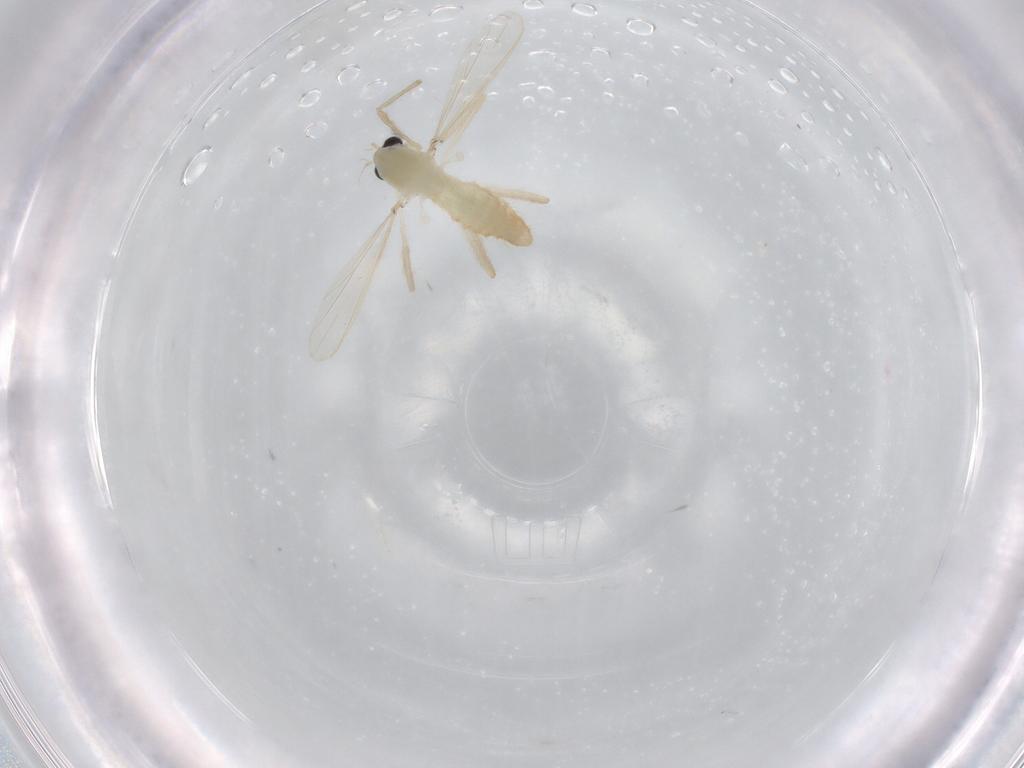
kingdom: Animalia
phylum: Arthropoda
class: Insecta
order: Diptera
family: Chironomidae
